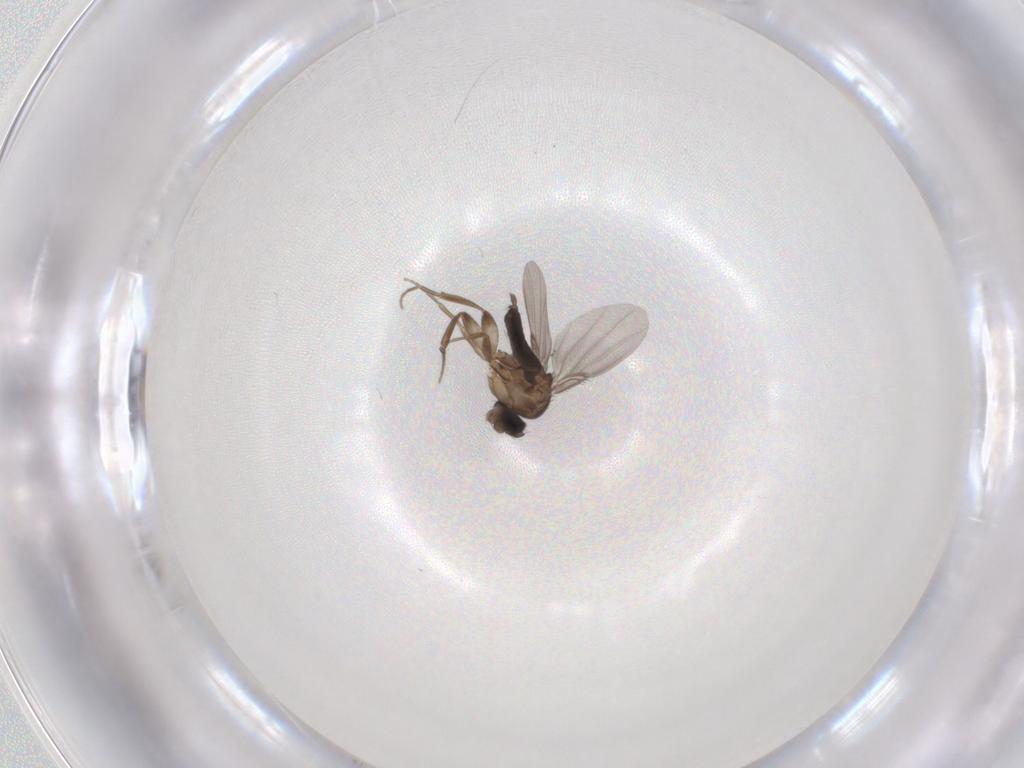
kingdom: Animalia
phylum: Arthropoda
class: Insecta
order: Diptera
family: Phoridae
